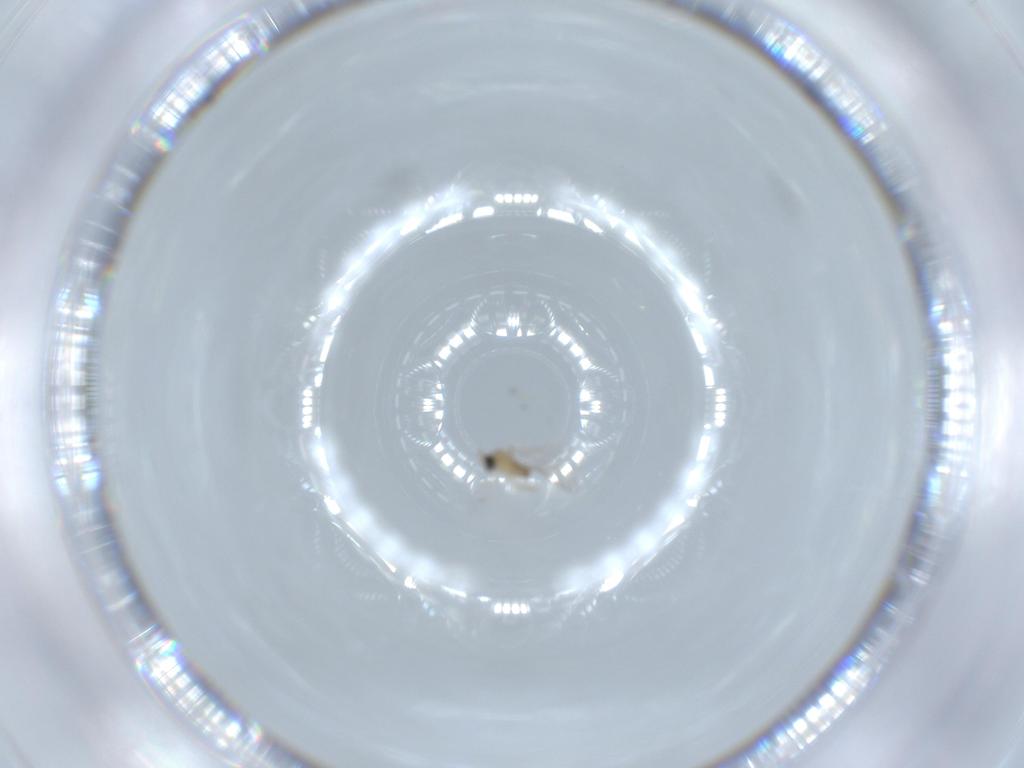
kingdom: Animalia
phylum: Arthropoda
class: Insecta
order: Diptera
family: Cecidomyiidae
